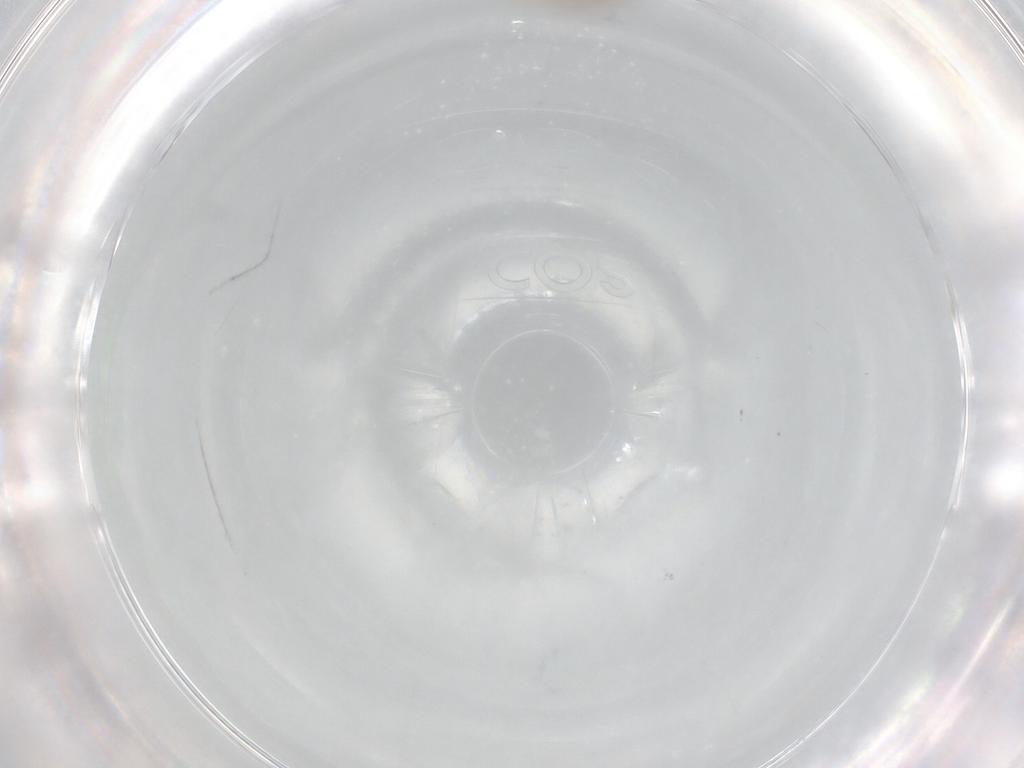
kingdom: Animalia
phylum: Arthropoda
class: Insecta
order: Diptera
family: Cecidomyiidae
